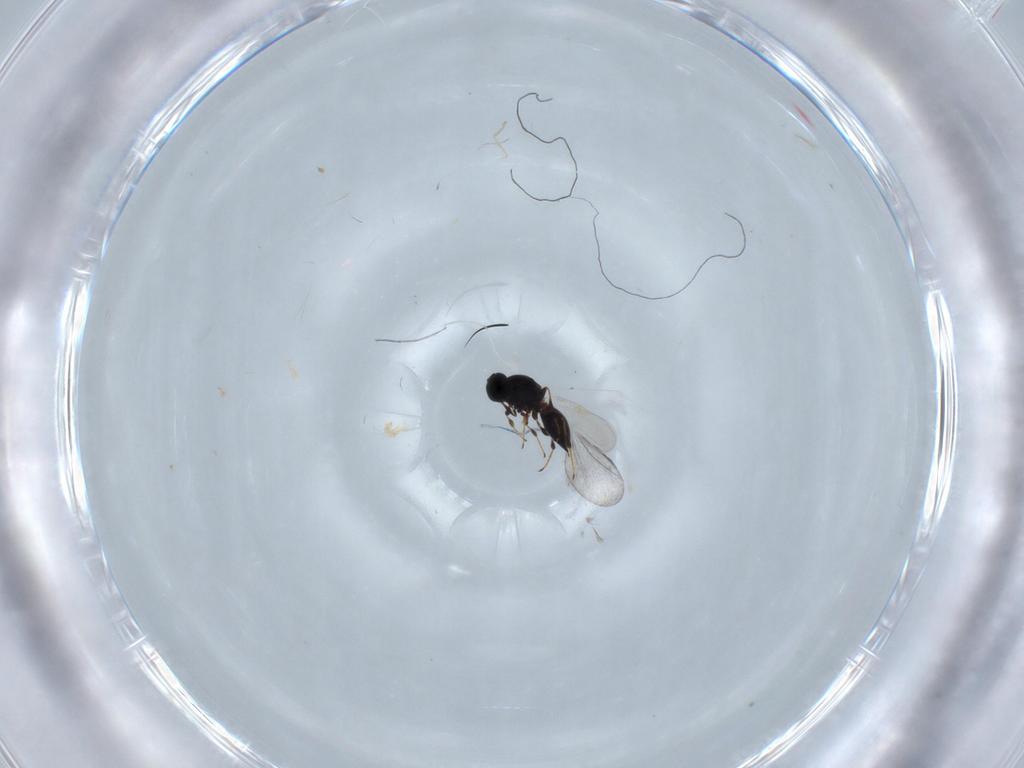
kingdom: Animalia
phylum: Arthropoda
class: Insecta
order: Hymenoptera
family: Platygastridae
